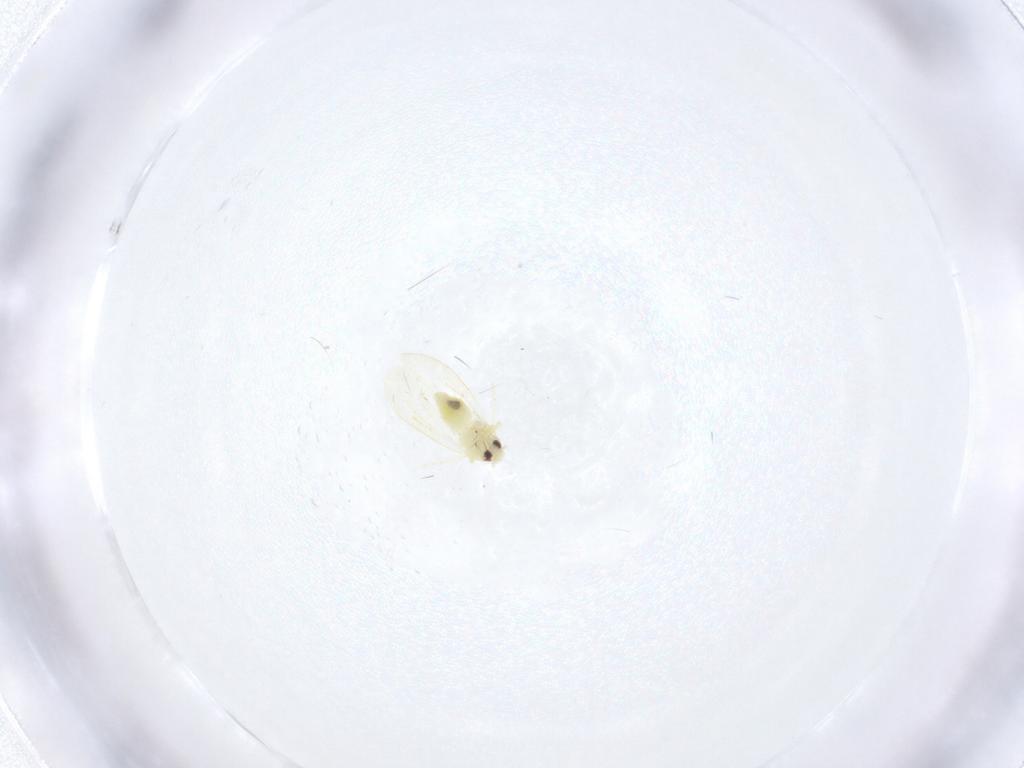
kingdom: Animalia
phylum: Arthropoda
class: Insecta
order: Hemiptera
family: Aleyrodidae
